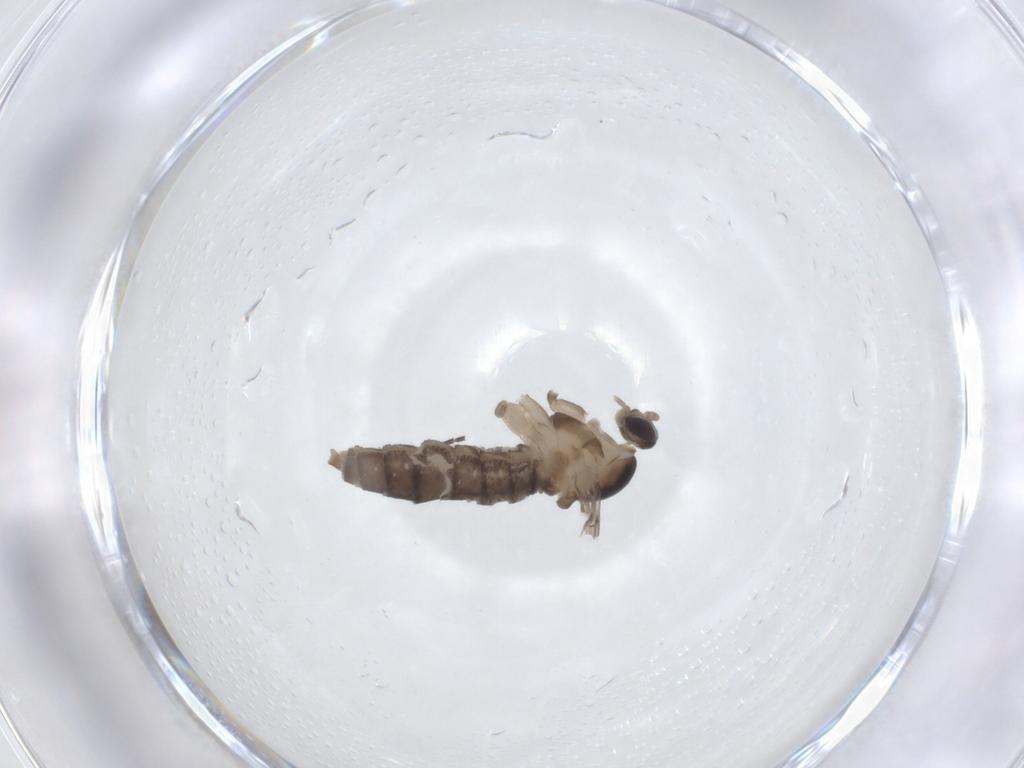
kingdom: Animalia
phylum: Arthropoda
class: Insecta
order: Diptera
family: Cecidomyiidae
